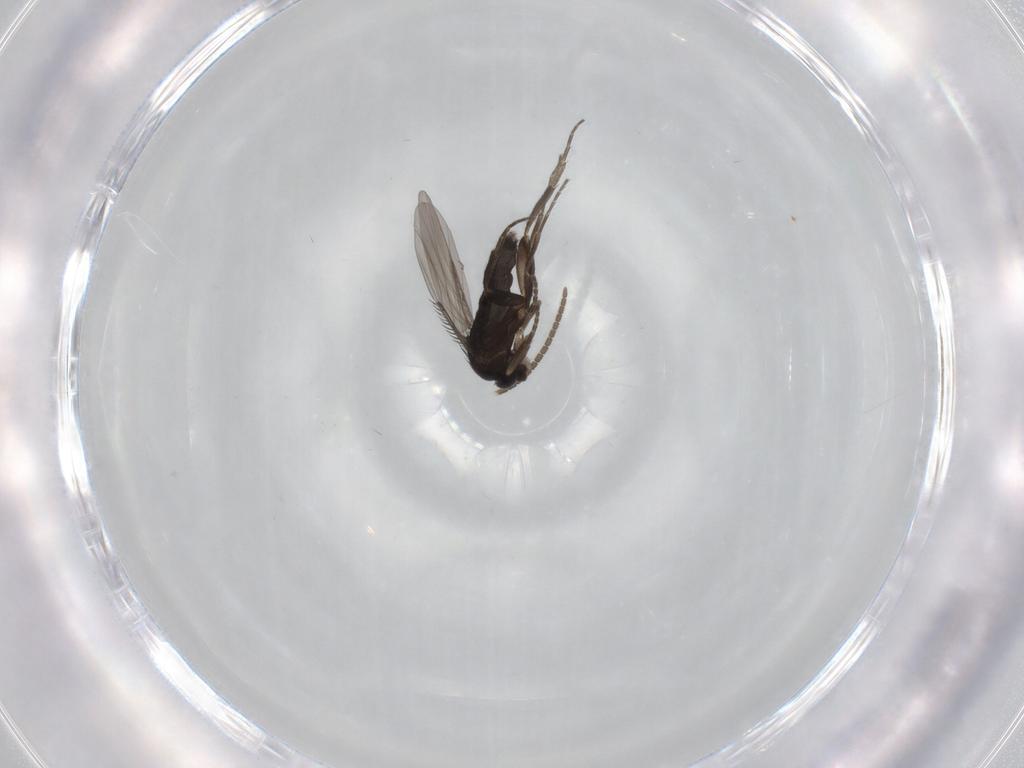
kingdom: Animalia
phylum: Arthropoda
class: Insecta
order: Diptera
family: Phoridae
